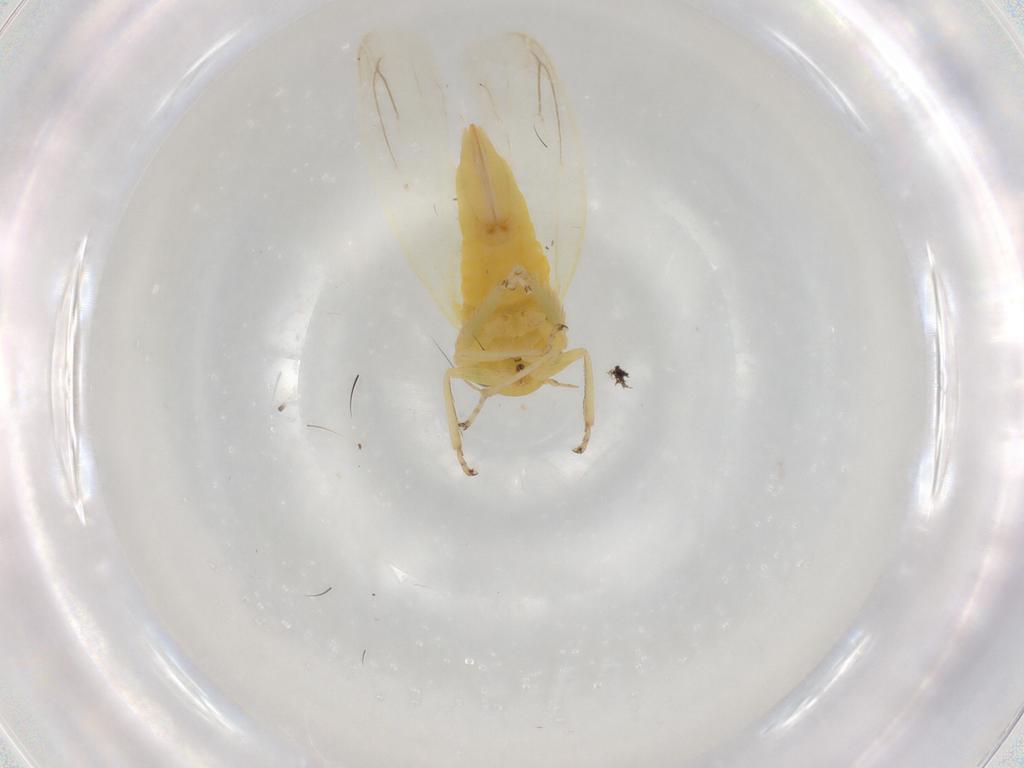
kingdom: Animalia
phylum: Arthropoda
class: Insecta
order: Hemiptera
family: Cicadellidae
